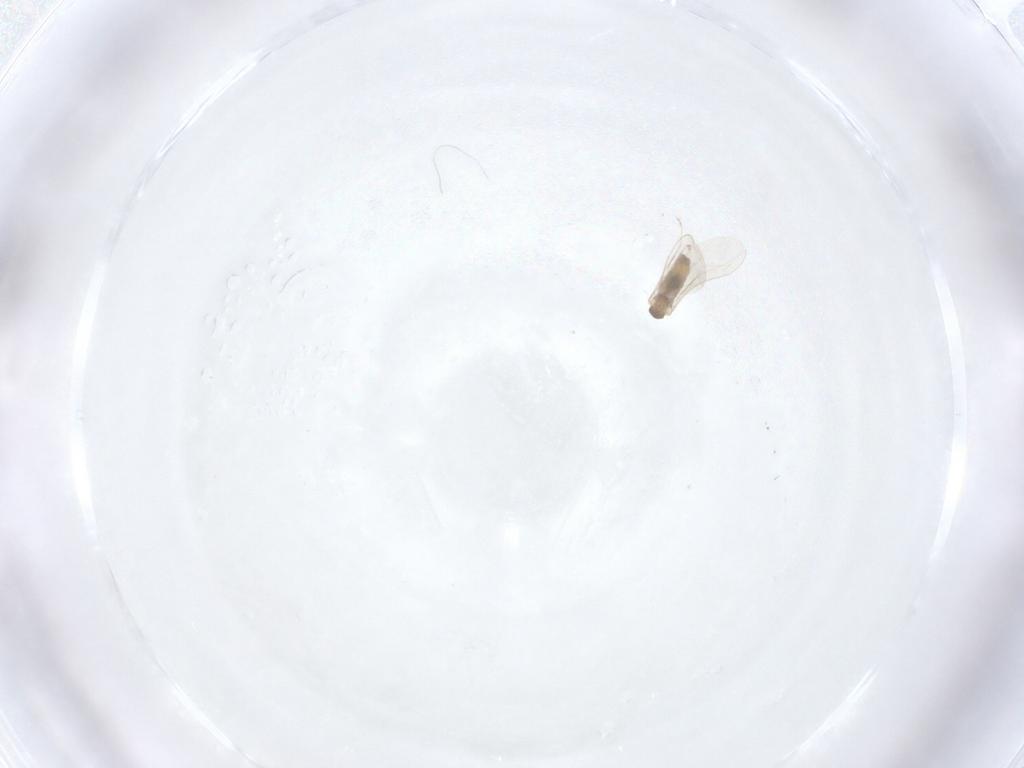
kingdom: Animalia
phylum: Arthropoda
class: Insecta
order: Diptera
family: Cecidomyiidae
